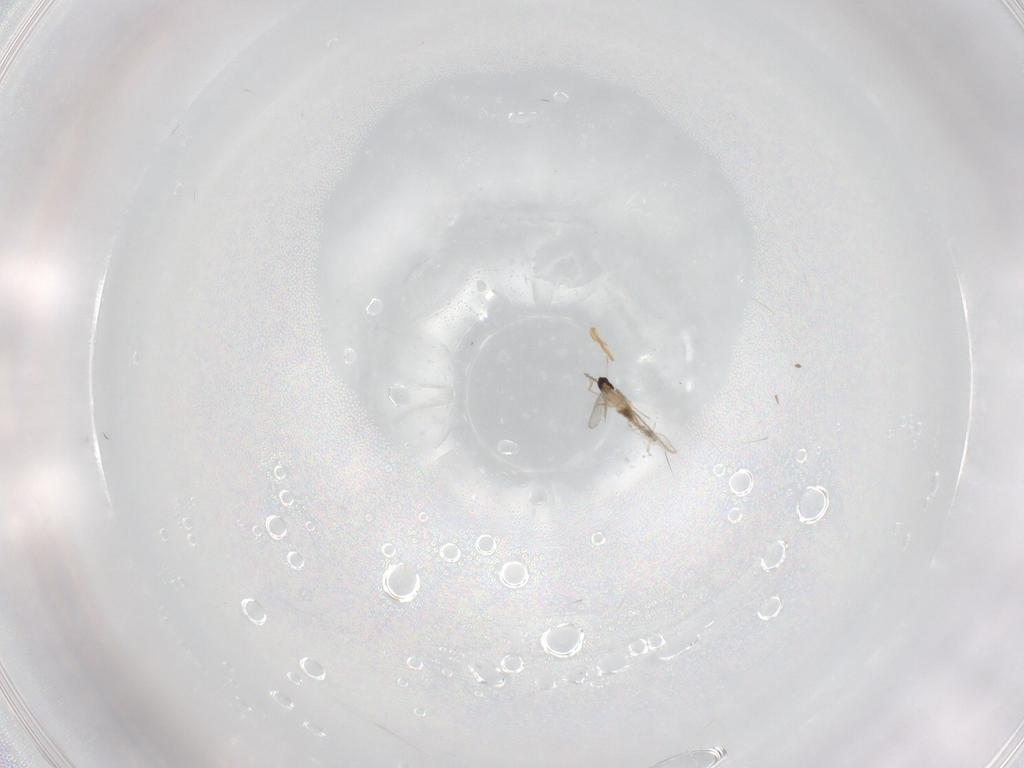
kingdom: Animalia
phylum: Arthropoda
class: Insecta
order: Diptera
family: Cecidomyiidae
